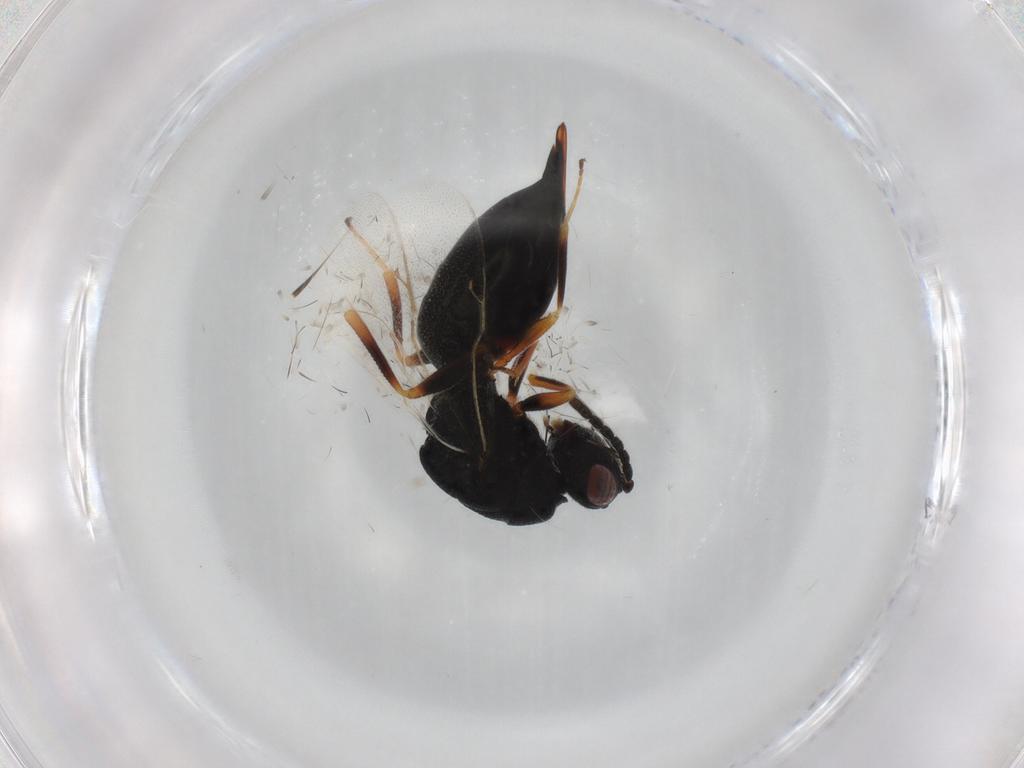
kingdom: Animalia
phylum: Arthropoda
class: Insecta
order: Hymenoptera
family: Eurytomidae
